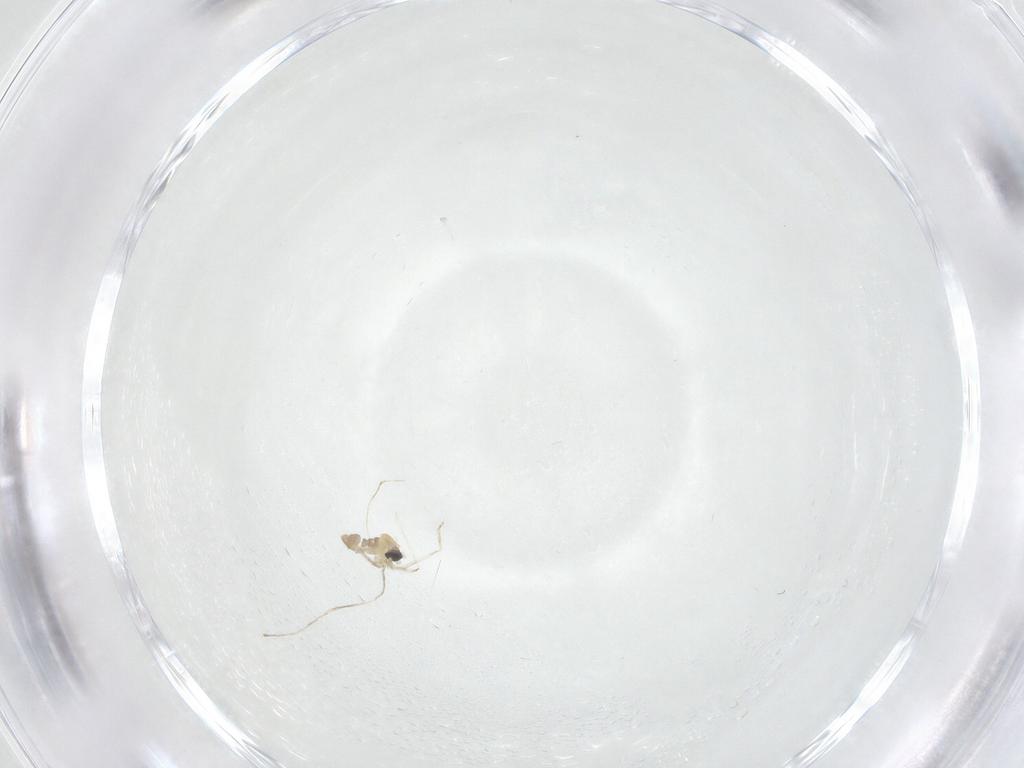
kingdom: Animalia
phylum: Arthropoda
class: Insecta
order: Diptera
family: Cecidomyiidae
